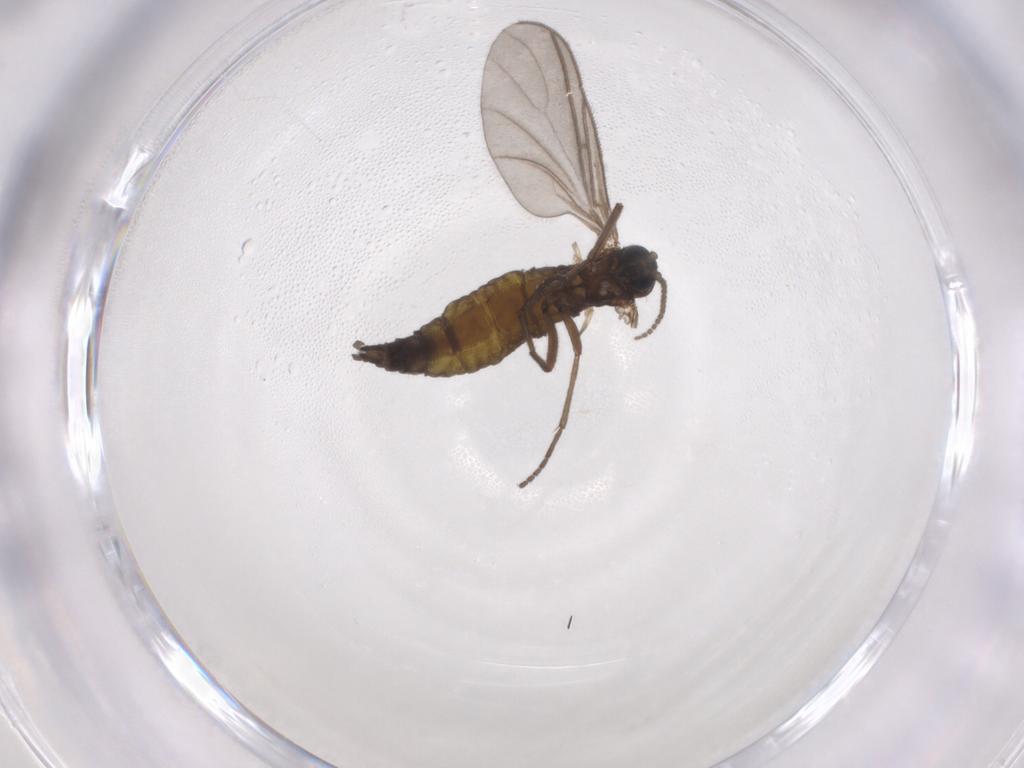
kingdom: Animalia
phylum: Arthropoda
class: Insecta
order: Diptera
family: Sciaridae
